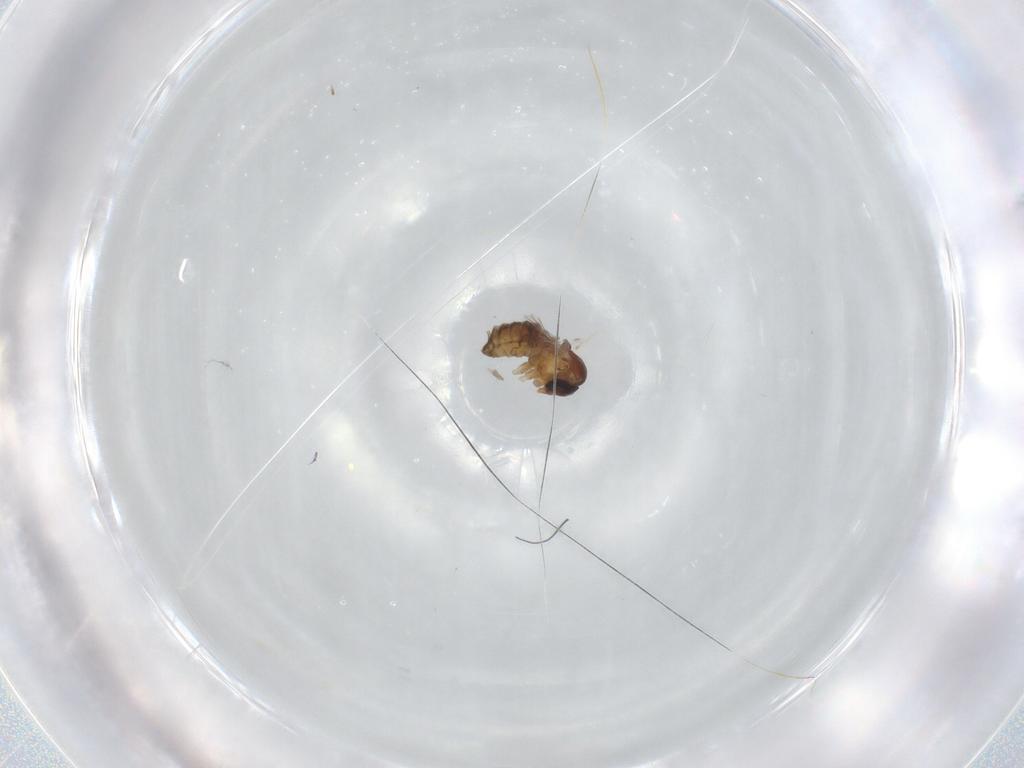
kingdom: Animalia
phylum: Arthropoda
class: Insecta
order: Diptera
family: Psychodidae
